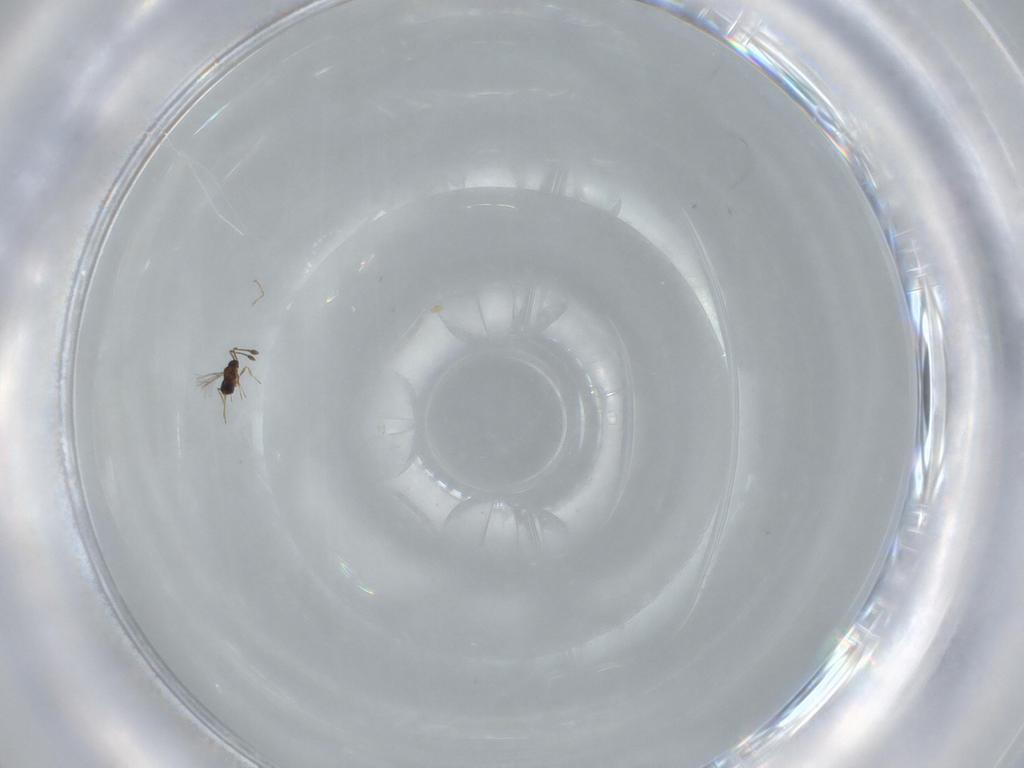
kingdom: Animalia
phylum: Arthropoda
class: Insecta
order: Hymenoptera
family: Mymaridae
